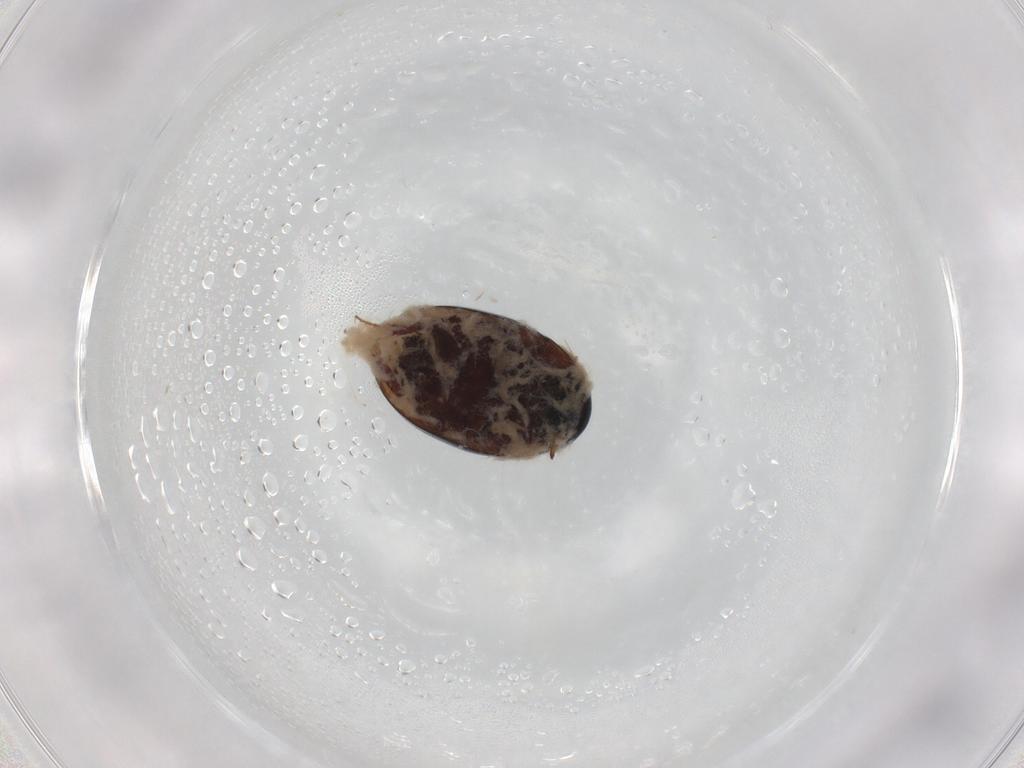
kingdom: Animalia
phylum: Arthropoda
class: Insecta
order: Coleoptera
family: Hydrophilidae
